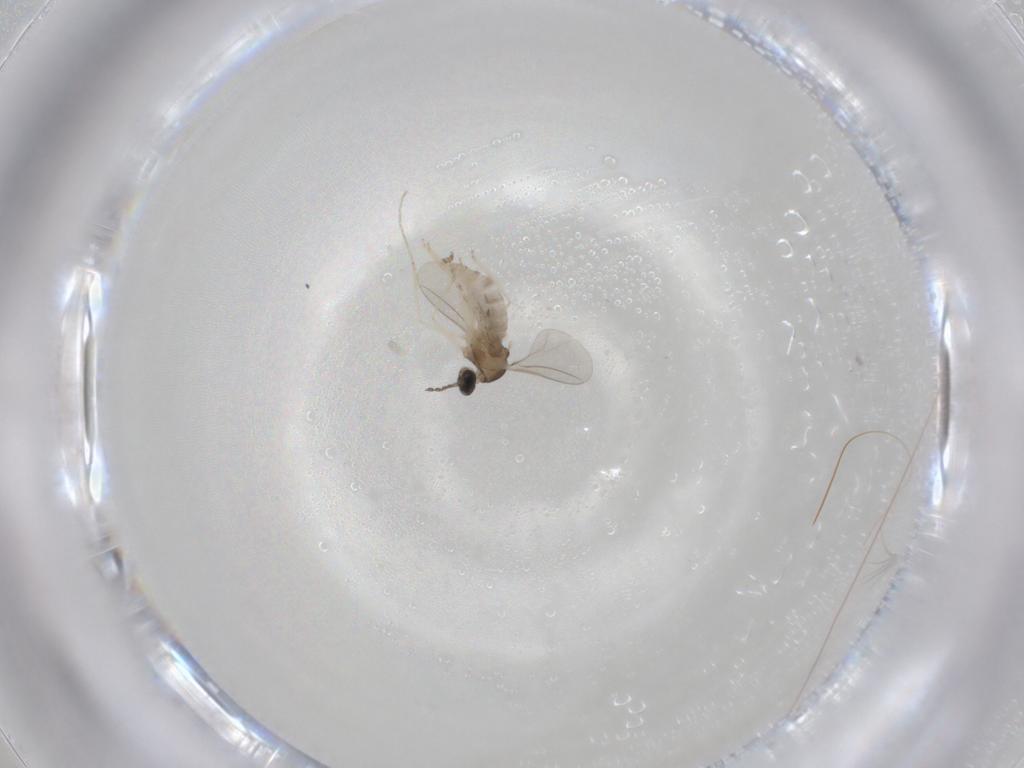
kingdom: Animalia
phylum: Arthropoda
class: Insecta
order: Diptera
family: Cecidomyiidae
